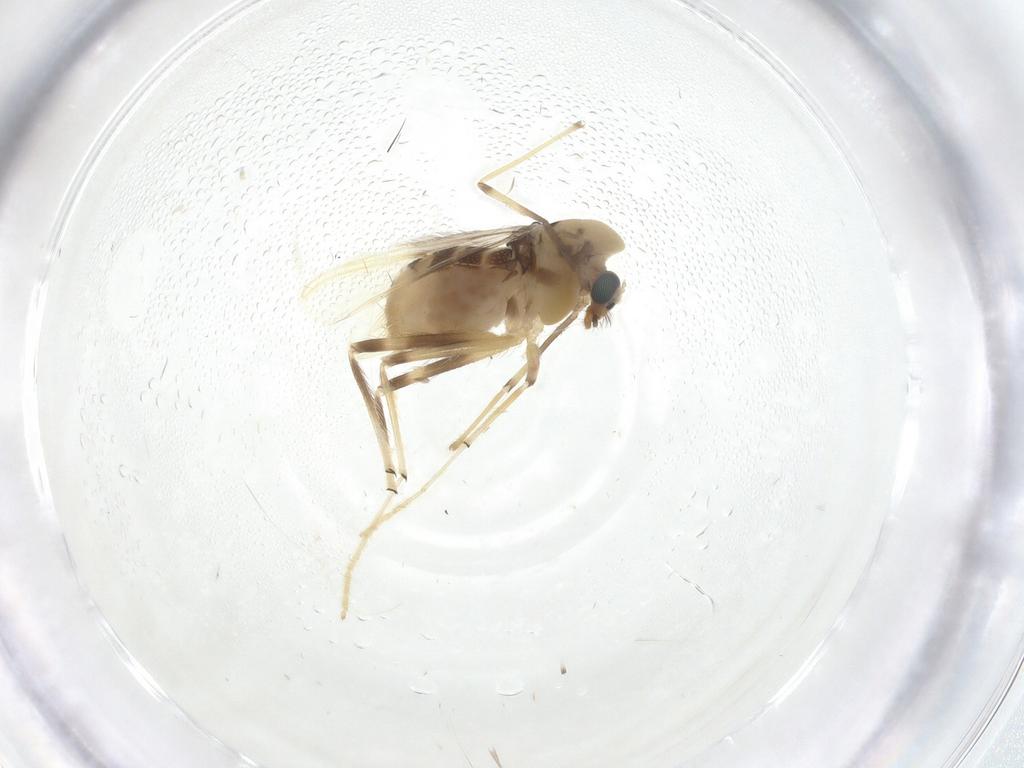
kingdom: Animalia
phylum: Arthropoda
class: Insecta
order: Diptera
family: Chironomidae
